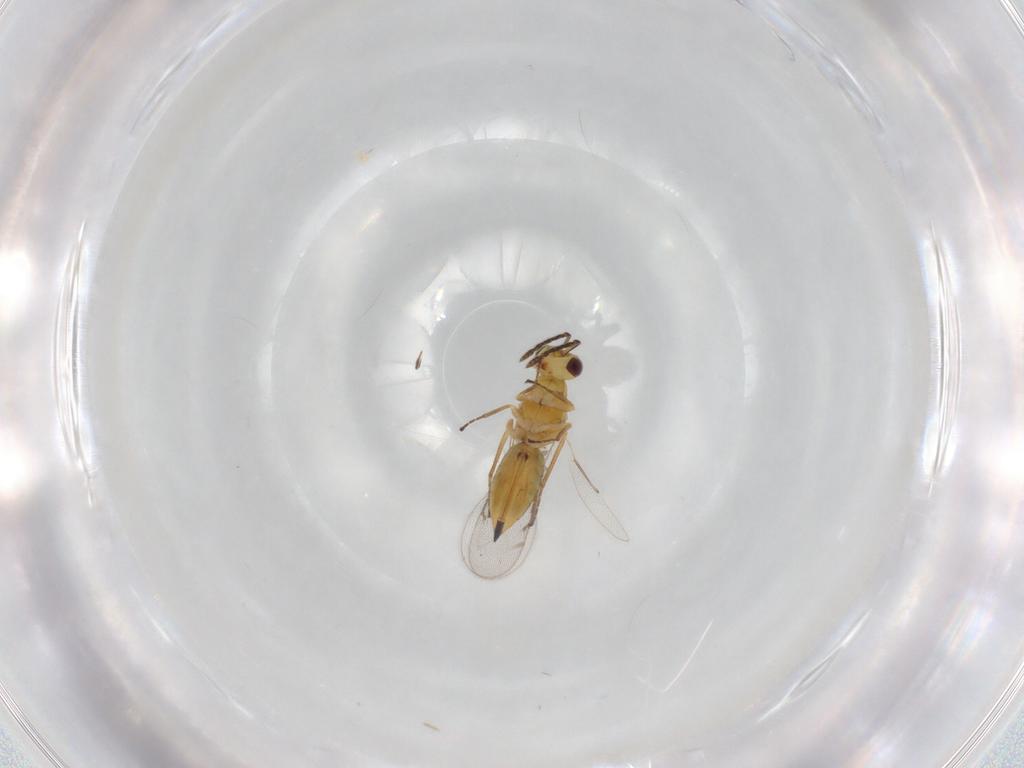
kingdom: Animalia
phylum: Arthropoda
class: Insecta
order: Hymenoptera
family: Eulophidae
